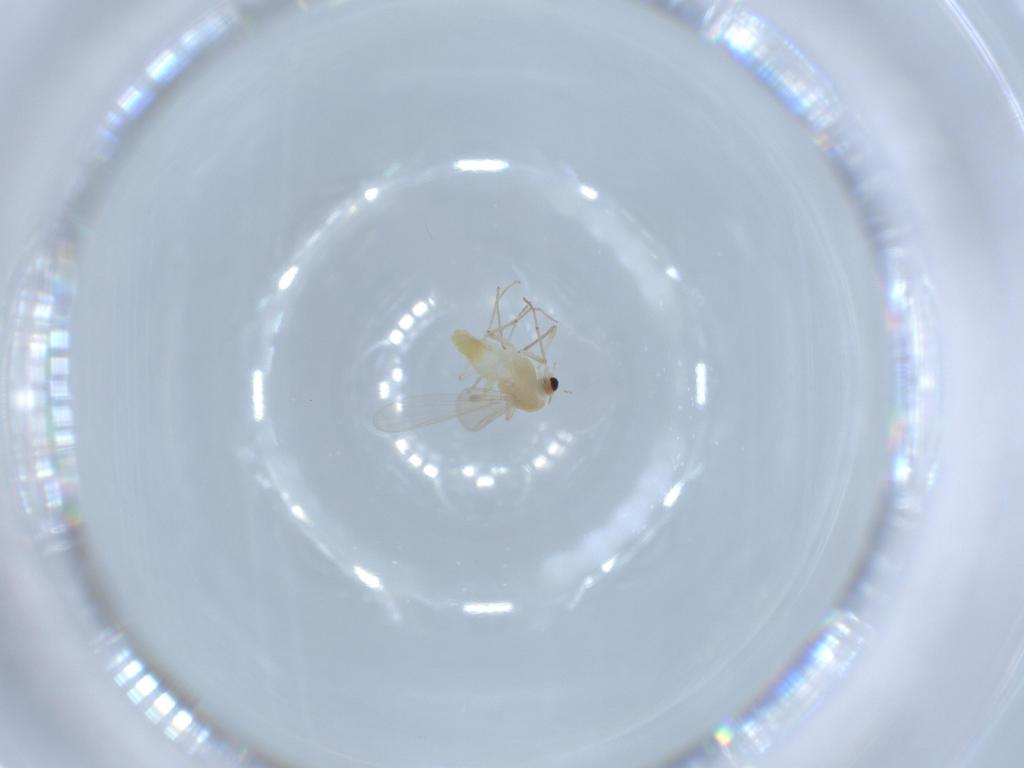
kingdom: Animalia
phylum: Arthropoda
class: Insecta
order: Diptera
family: Chironomidae
